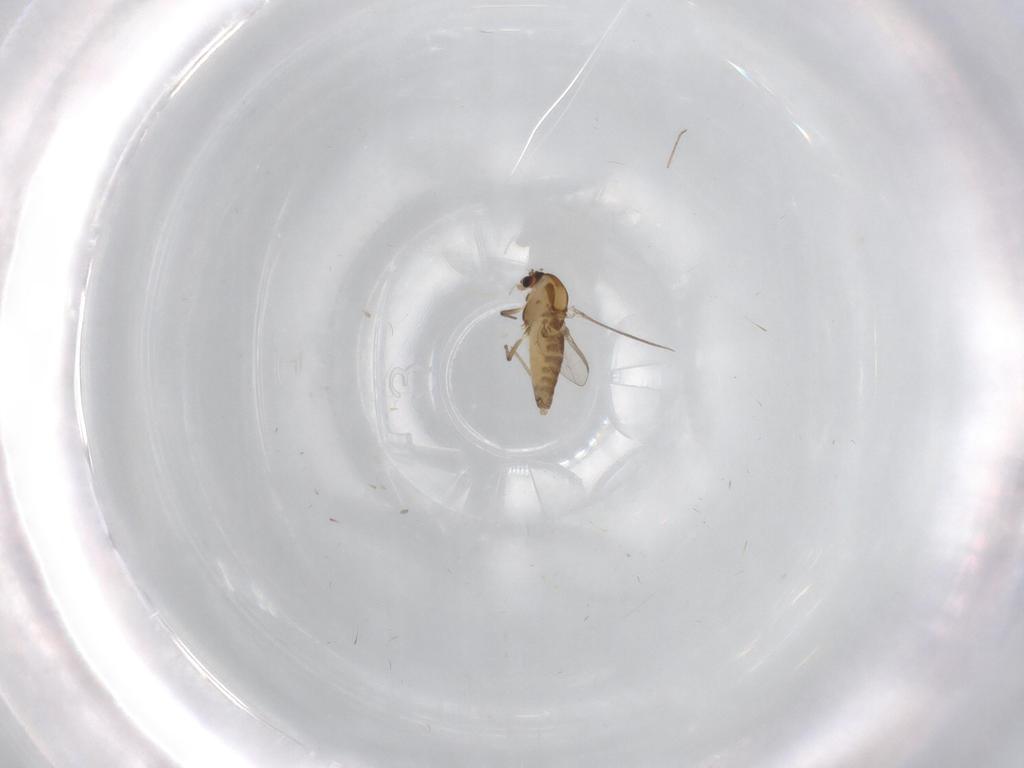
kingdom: Animalia
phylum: Arthropoda
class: Insecta
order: Diptera
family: Chironomidae
